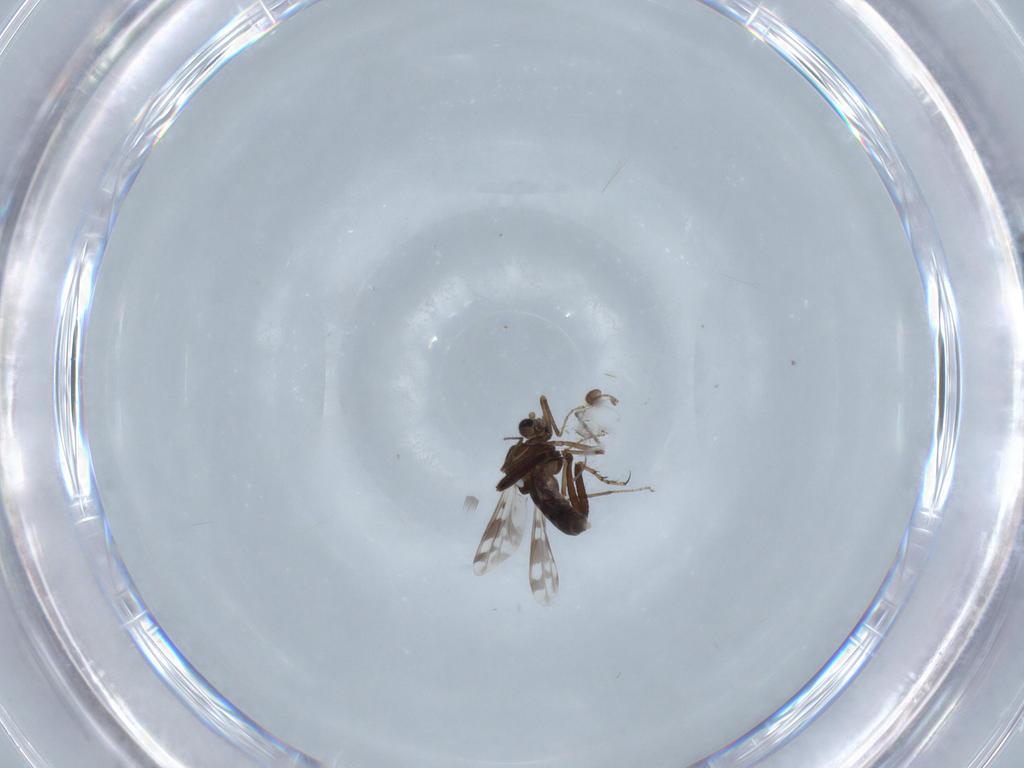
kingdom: Animalia
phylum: Arthropoda
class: Insecta
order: Diptera
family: Ceratopogonidae
